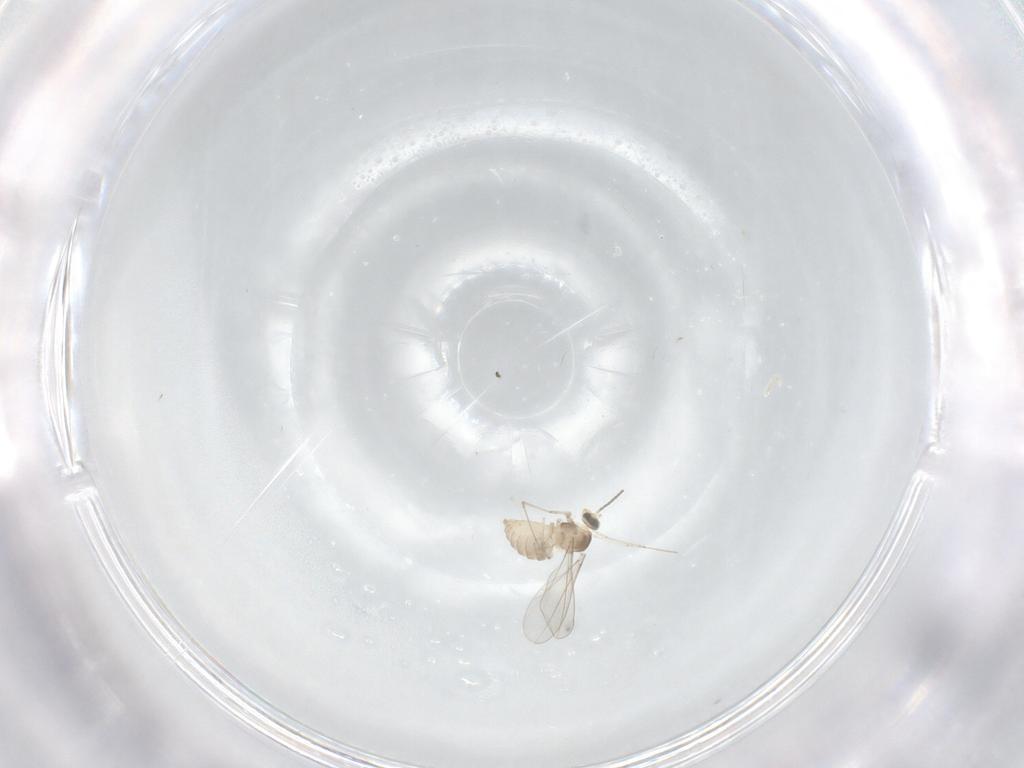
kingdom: Animalia
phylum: Arthropoda
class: Insecta
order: Diptera
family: Cecidomyiidae
